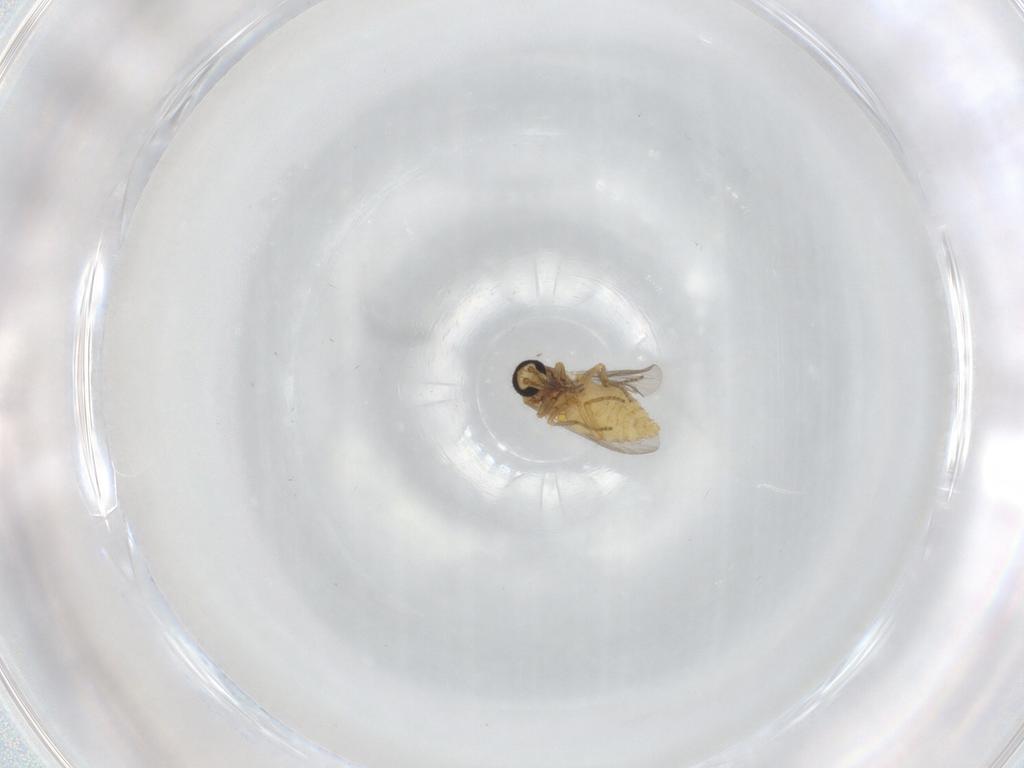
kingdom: Animalia
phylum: Arthropoda
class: Insecta
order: Diptera
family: Ceratopogonidae
